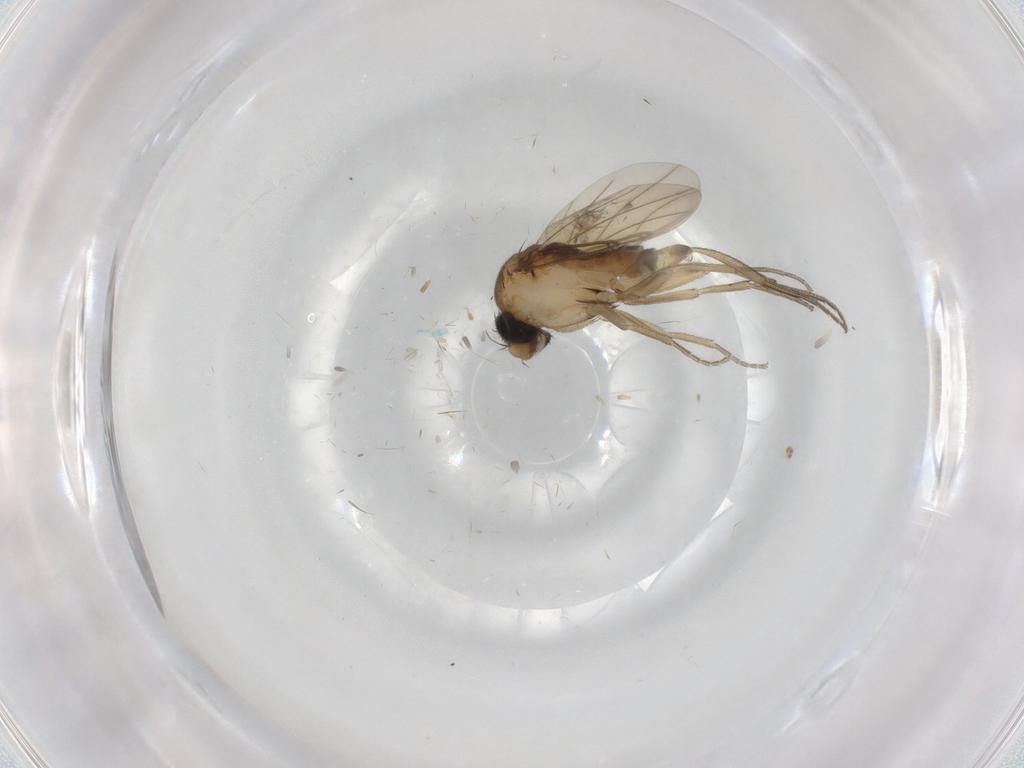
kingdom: Animalia
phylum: Arthropoda
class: Insecta
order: Diptera
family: Phoridae
